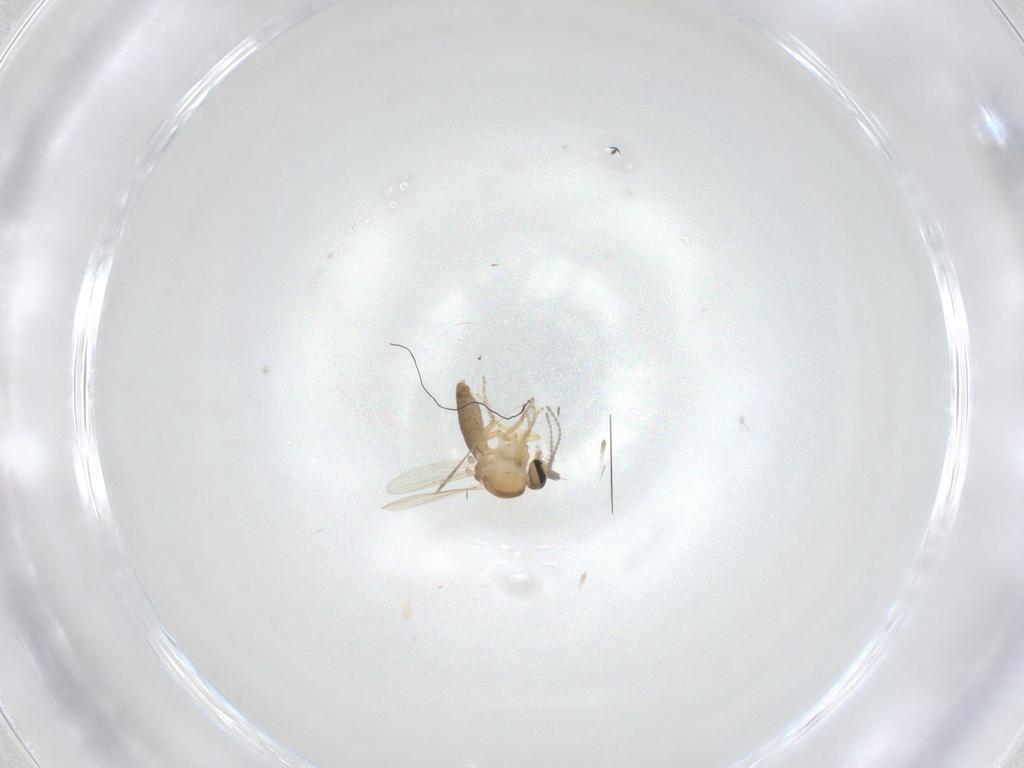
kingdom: Animalia
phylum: Arthropoda
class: Insecta
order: Diptera
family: Ceratopogonidae
